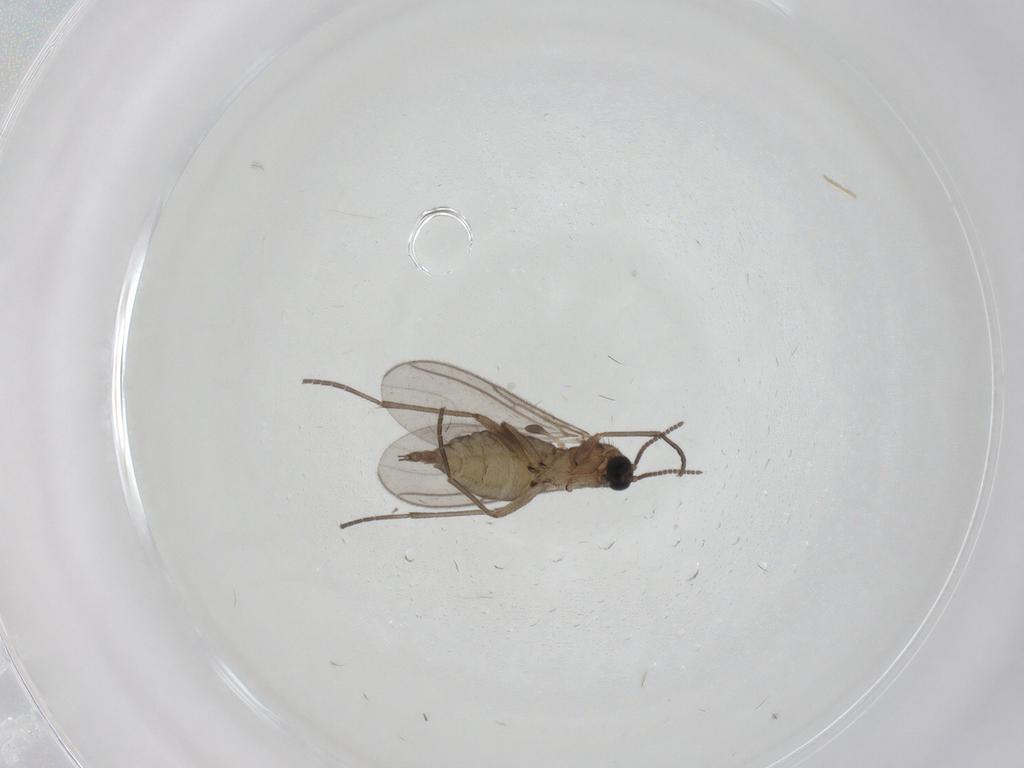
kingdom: Animalia
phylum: Arthropoda
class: Insecta
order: Diptera
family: Sciaridae
